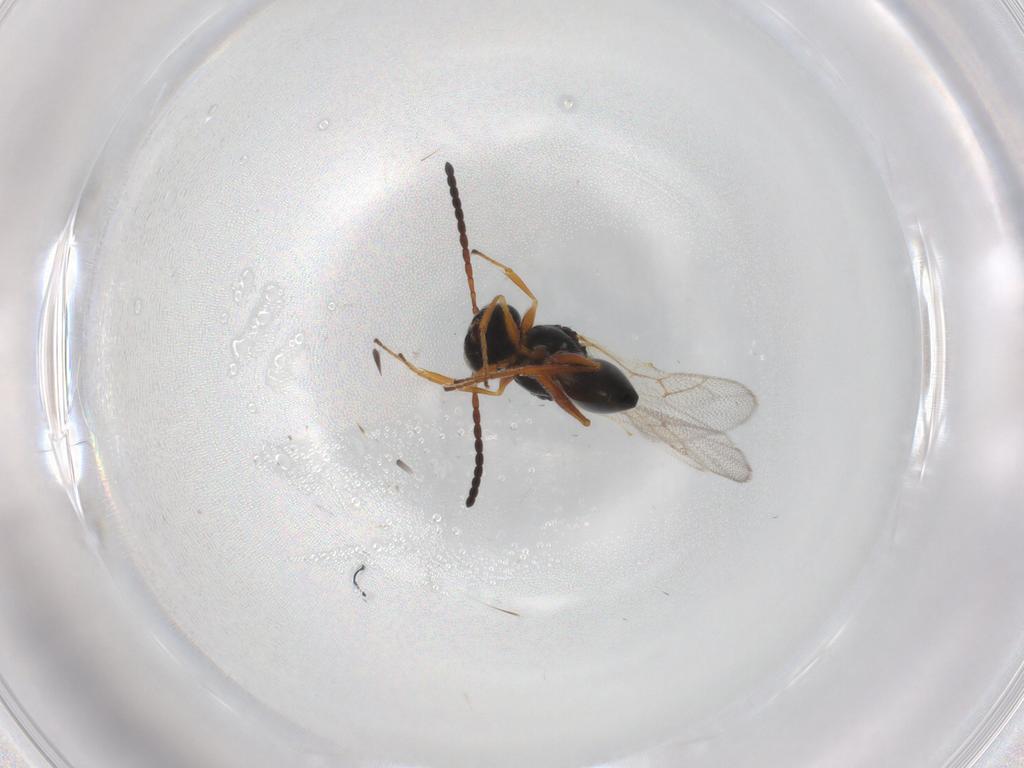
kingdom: Animalia
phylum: Arthropoda
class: Insecta
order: Hymenoptera
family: Figitidae
